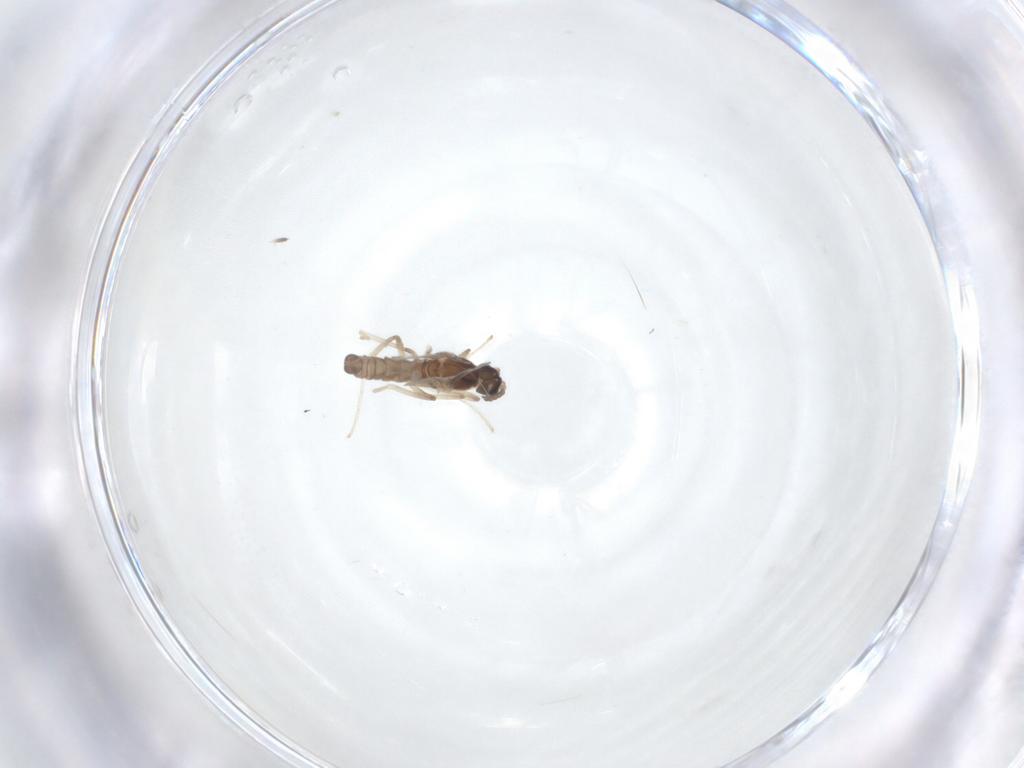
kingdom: Animalia
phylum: Arthropoda
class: Insecta
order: Diptera
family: Cecidomyiidae
